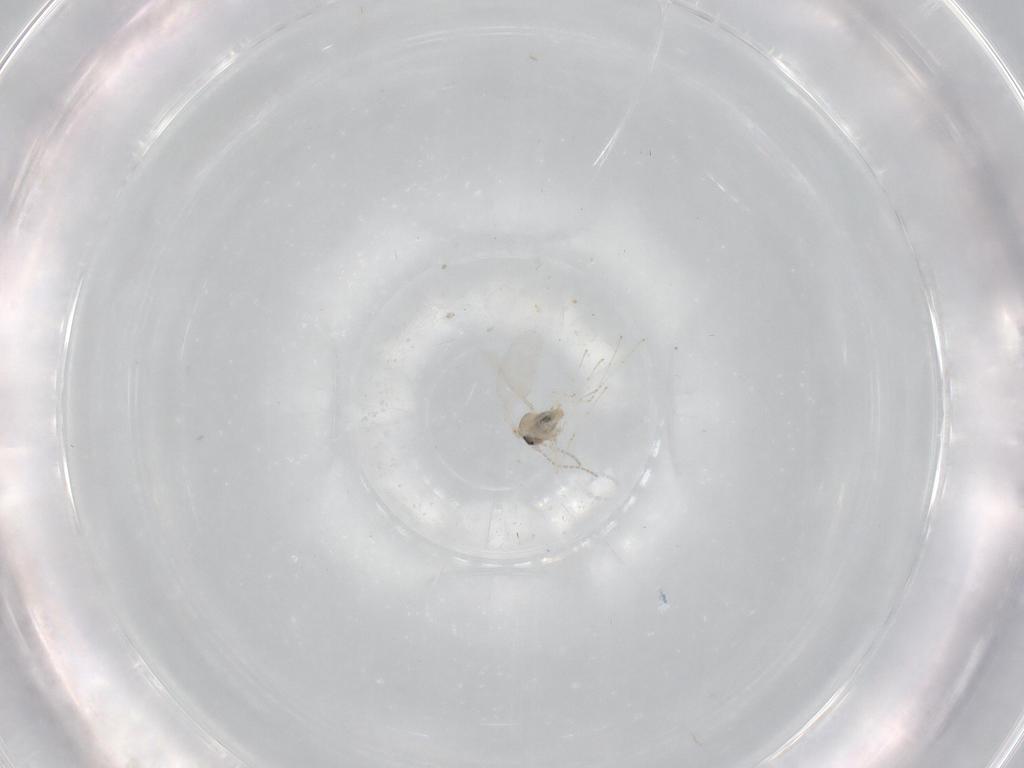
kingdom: Animalia
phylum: Arthropoda
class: Insecta
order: Diptera
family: Cecidomyiidae
